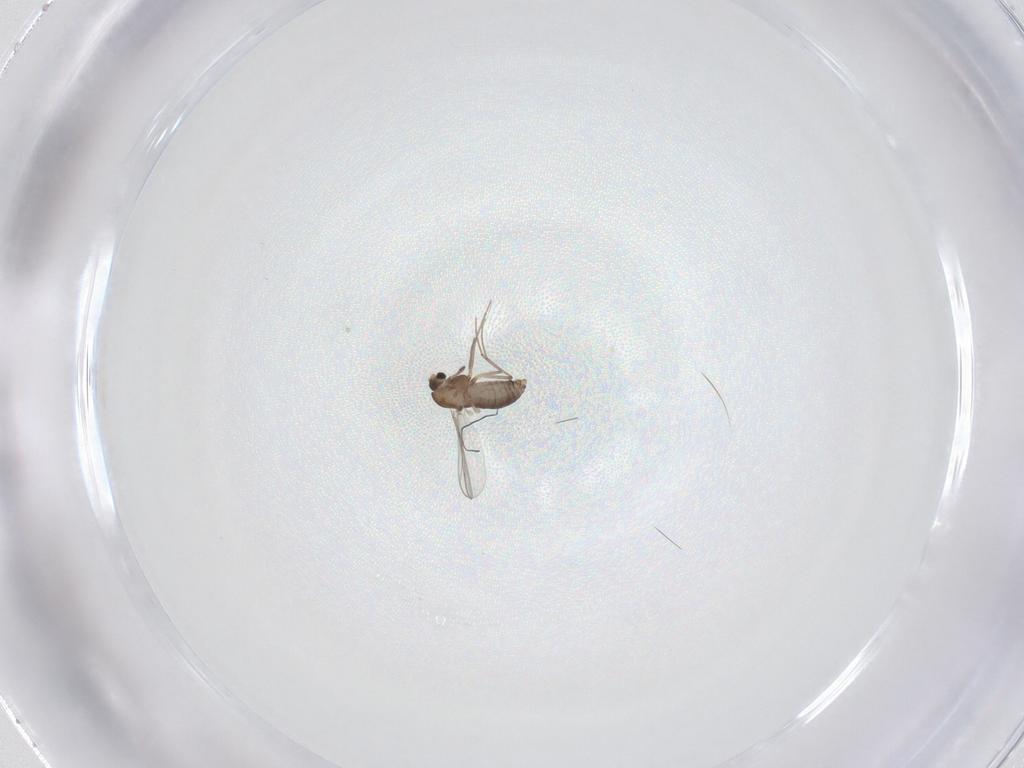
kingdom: Animalia
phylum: Arthropoda
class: Insecta
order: Diptera
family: Chironomidae
